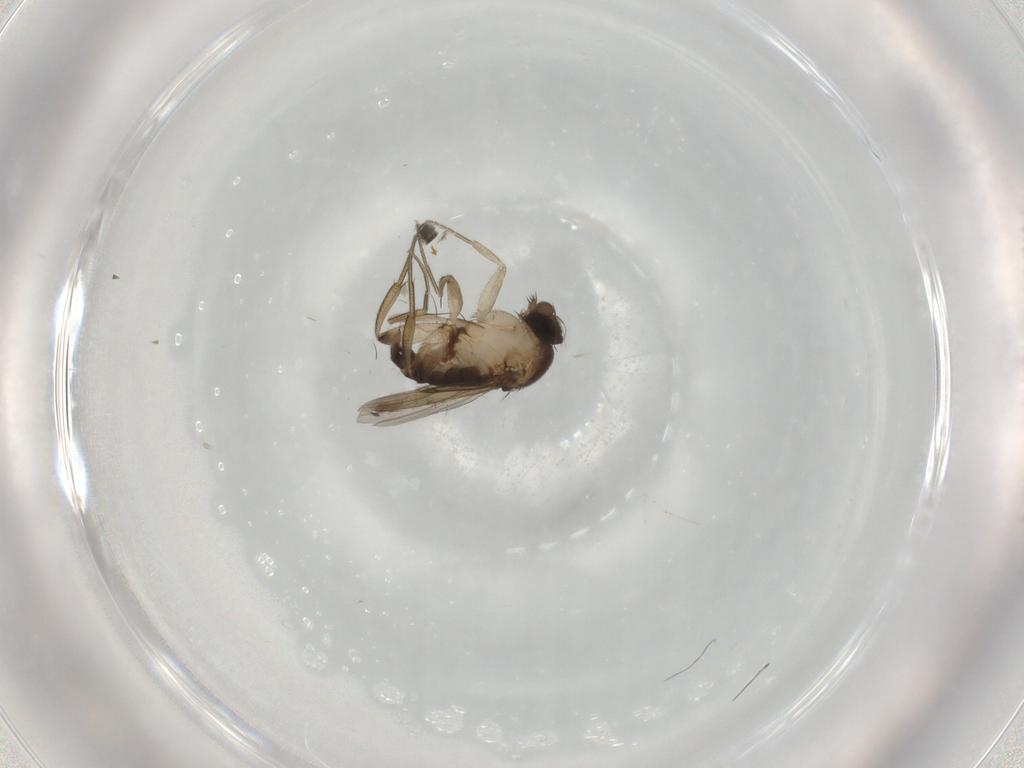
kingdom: Animalia
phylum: Arthropoda
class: Insecta
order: Diptera
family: Phoridae
